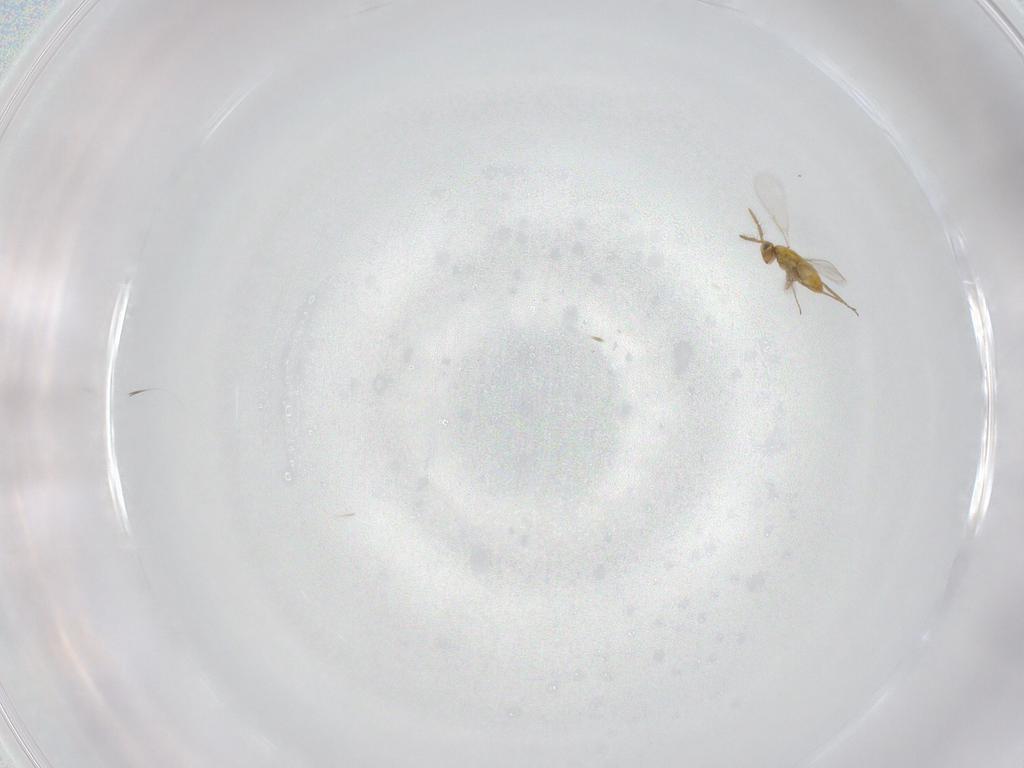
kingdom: Animalia
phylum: Arthropoda
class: Insecta
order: Hymenoptera
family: Aphelinidae
